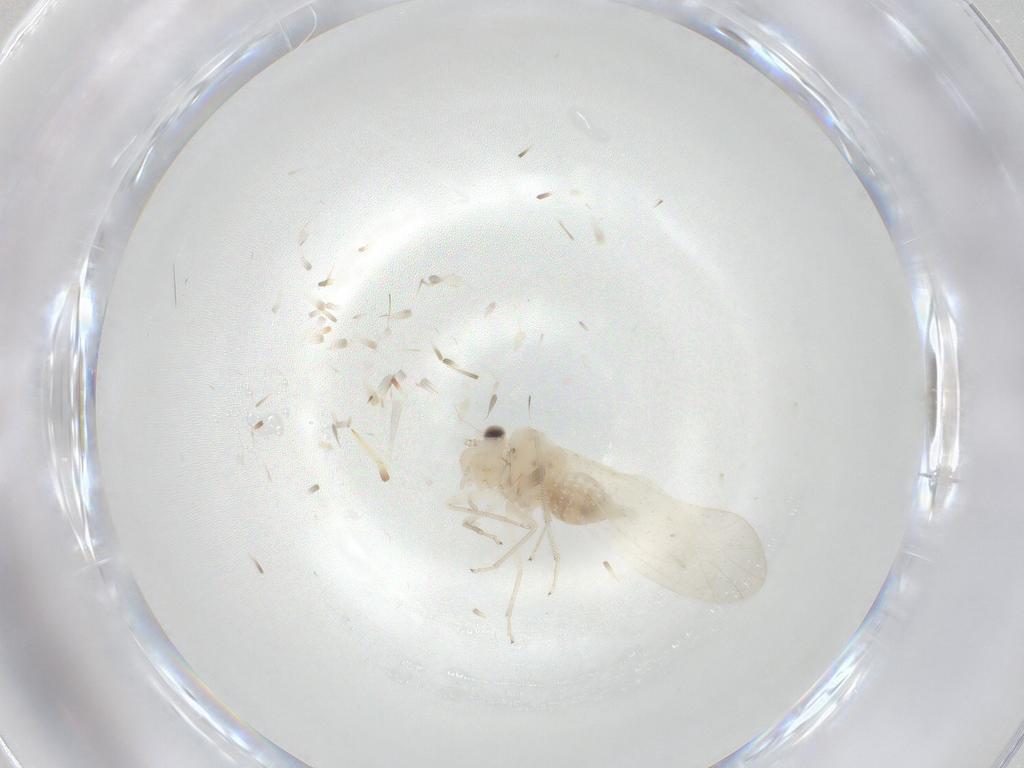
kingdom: Animalia
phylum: Arthropoda
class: Insecta
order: Psocodea
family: Caeciliusidae
